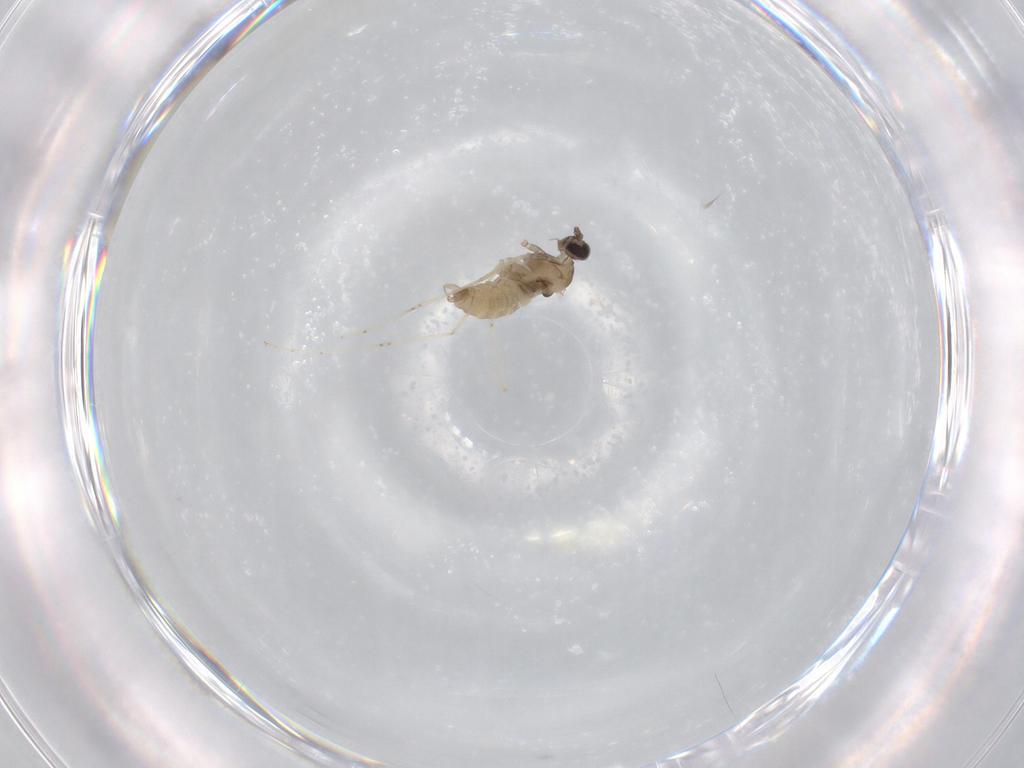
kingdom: Animalia
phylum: Arthropoda
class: Insecta
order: Diptera
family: Cecidomyiidae
